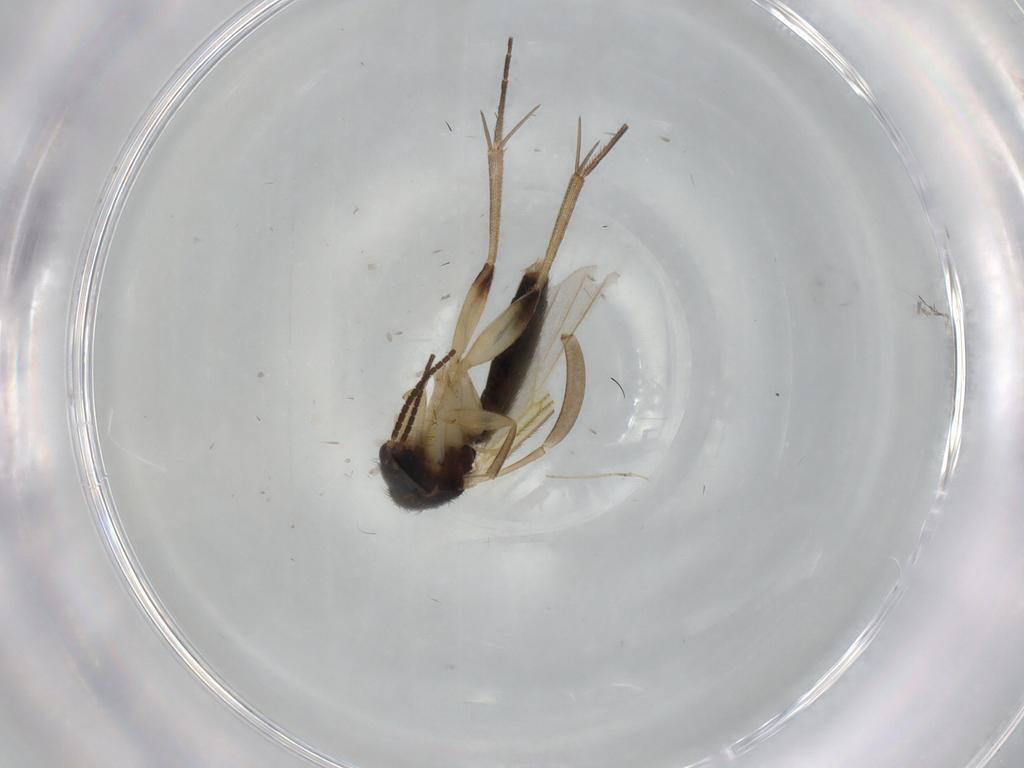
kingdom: Animalia
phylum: Arthropoda
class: Insecta
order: Diptera
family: Mycetophilidae
